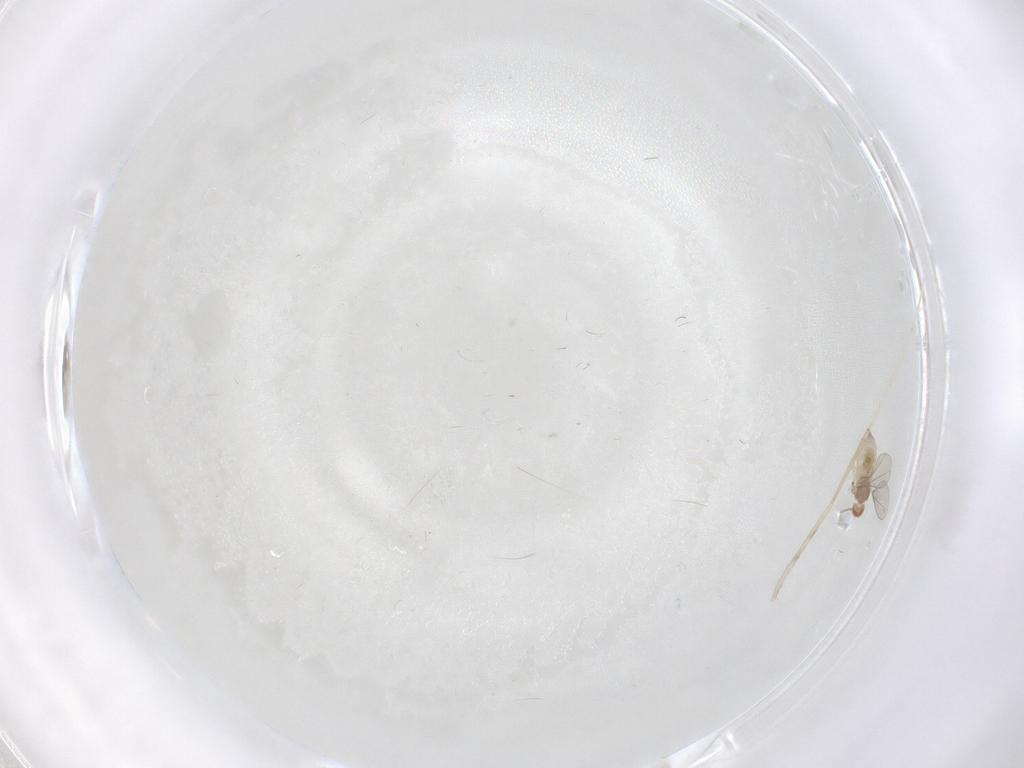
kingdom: Animalia
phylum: Arthropoda
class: Insecta
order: Diptera
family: Cecidomyiidae
